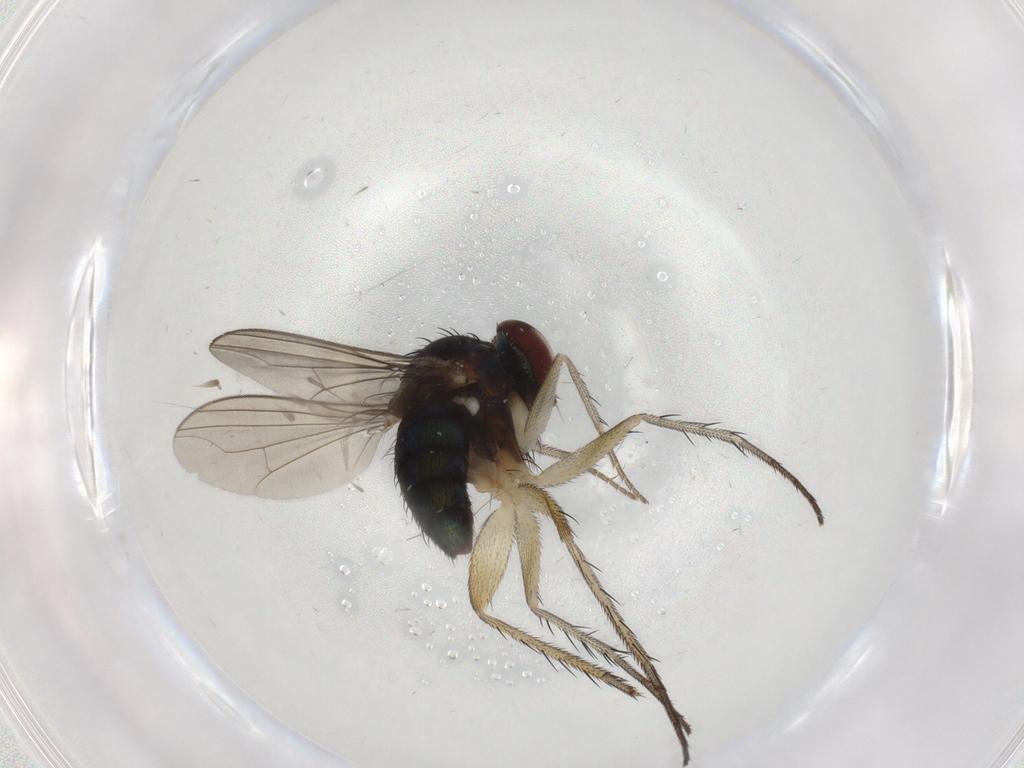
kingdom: Animalia
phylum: Arthropoda
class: Insecta
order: Diptera
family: Dolichopodidae
